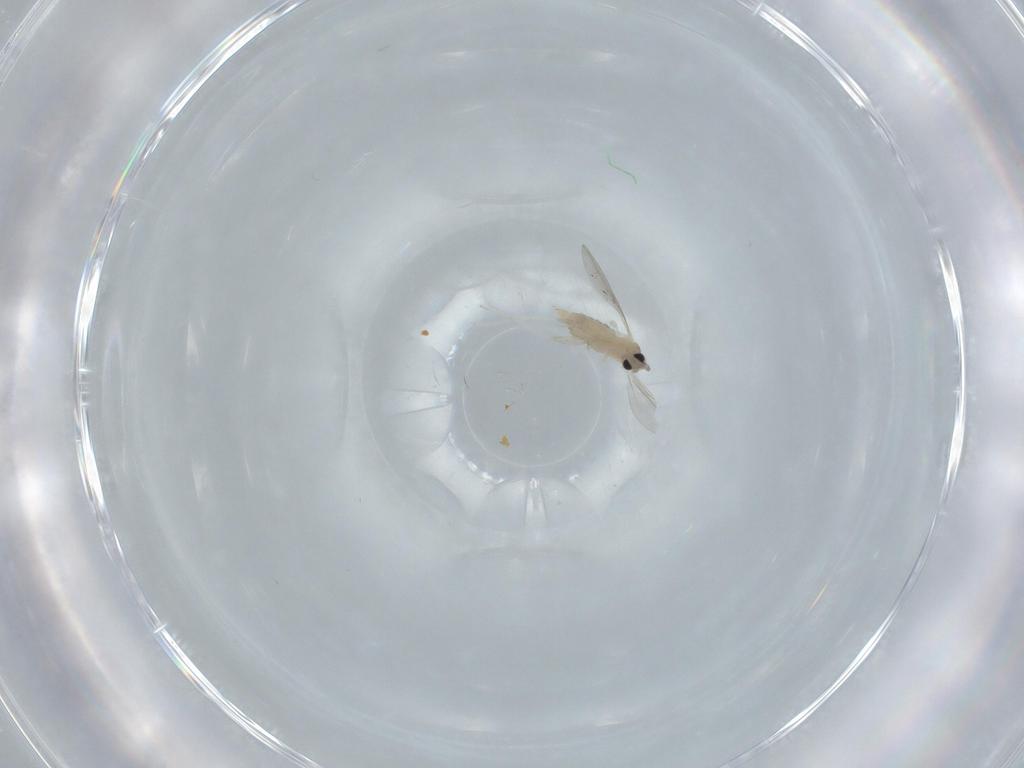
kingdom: Animalia
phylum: Arthropoda
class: Insecta
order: Diptera
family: Cecidomyiidae
